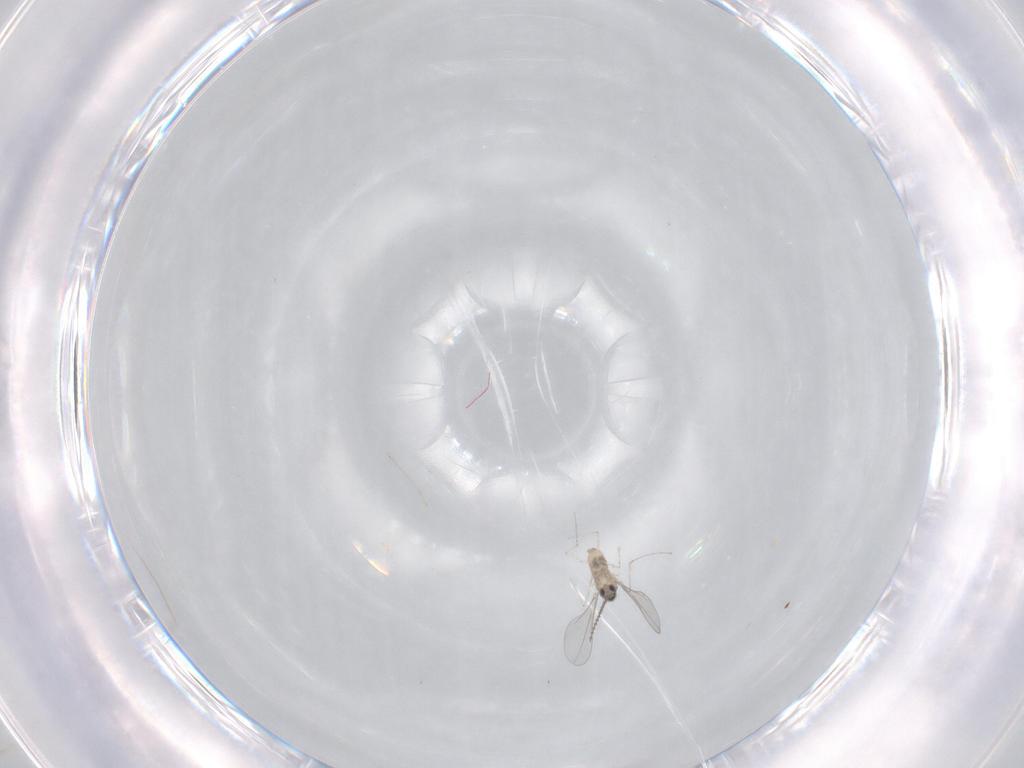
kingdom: Animalia
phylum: Arthropoda
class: Insecta
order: Diptera
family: Cecidomyiidae
